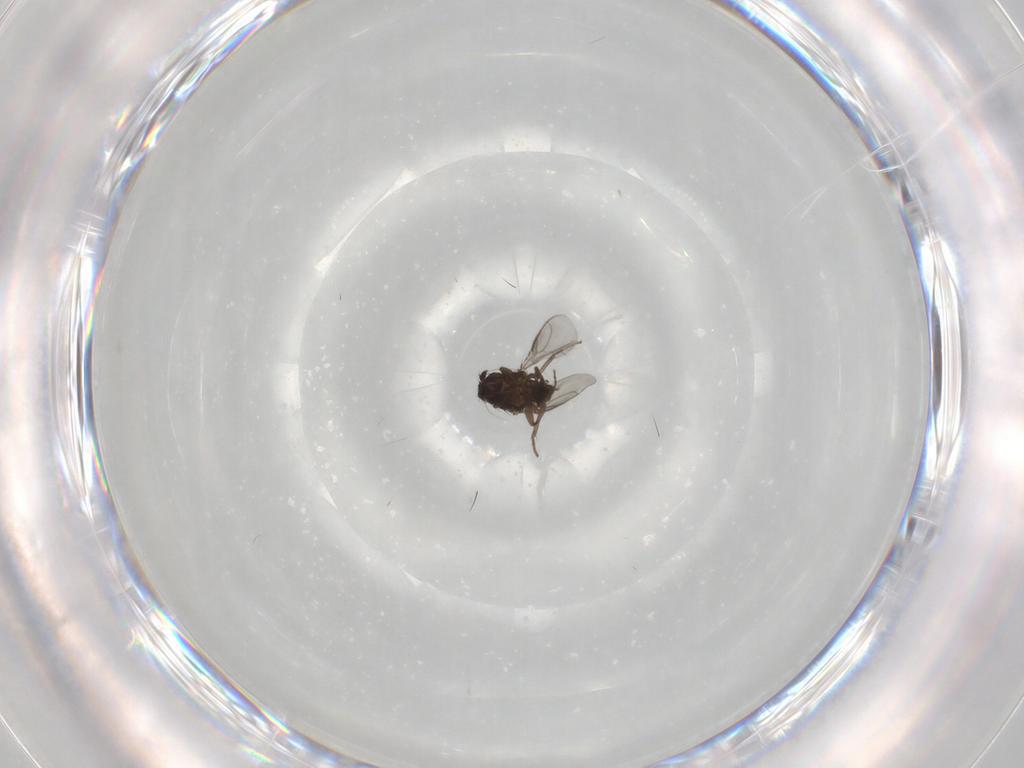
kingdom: Animalia
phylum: Arthropoda
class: Insecta
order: Diptera
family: Sphaeroceridae
